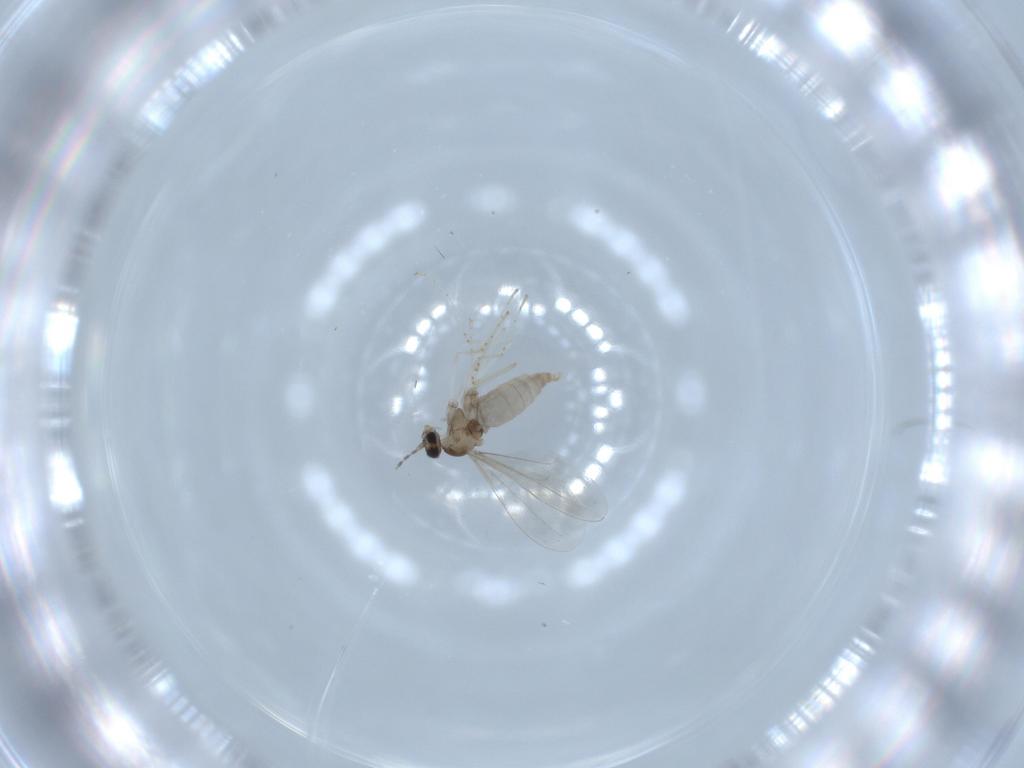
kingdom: Animalia
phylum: Arthropoda
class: Insecta
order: Diptera
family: Cecidomyiidae
